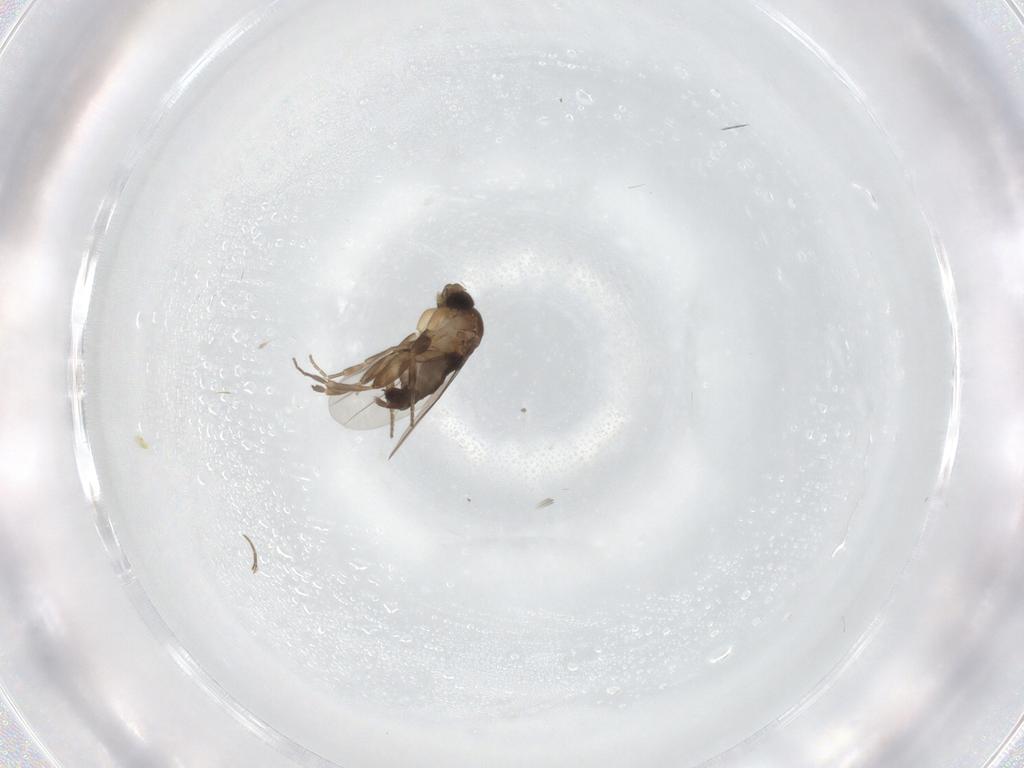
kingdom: Animalia
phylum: Arthropoda
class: Insecta
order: Diptera
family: Phoridae
